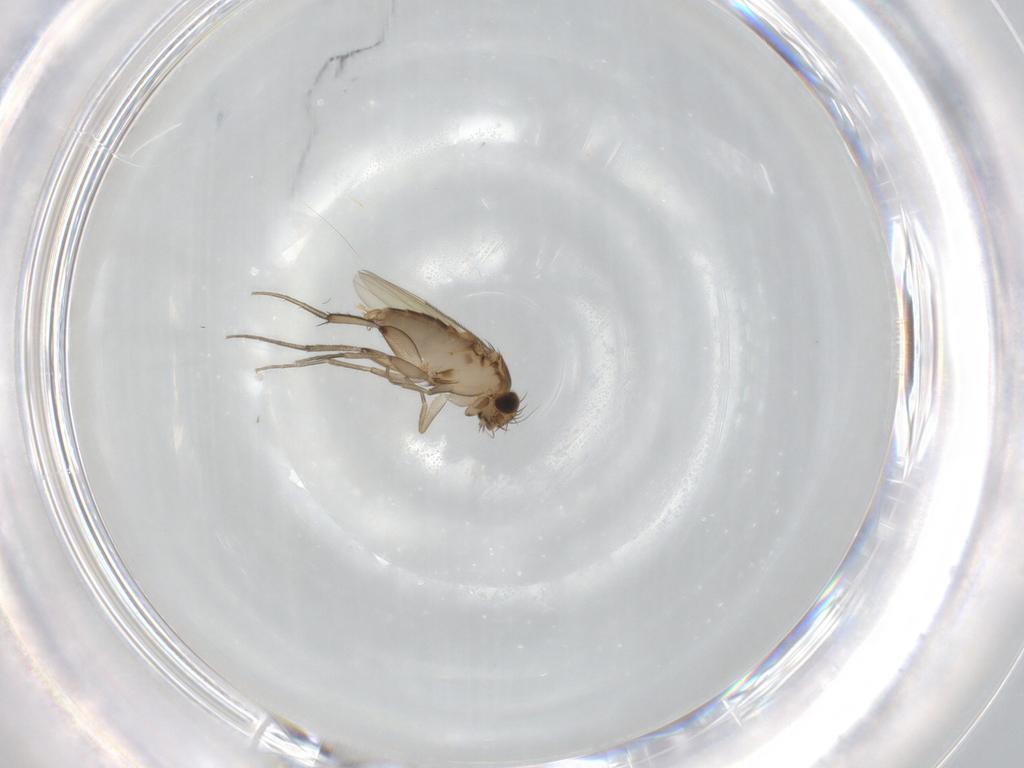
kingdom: Animalia
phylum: Arthropoda
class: Insecta
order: Diptera
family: Phoridae
